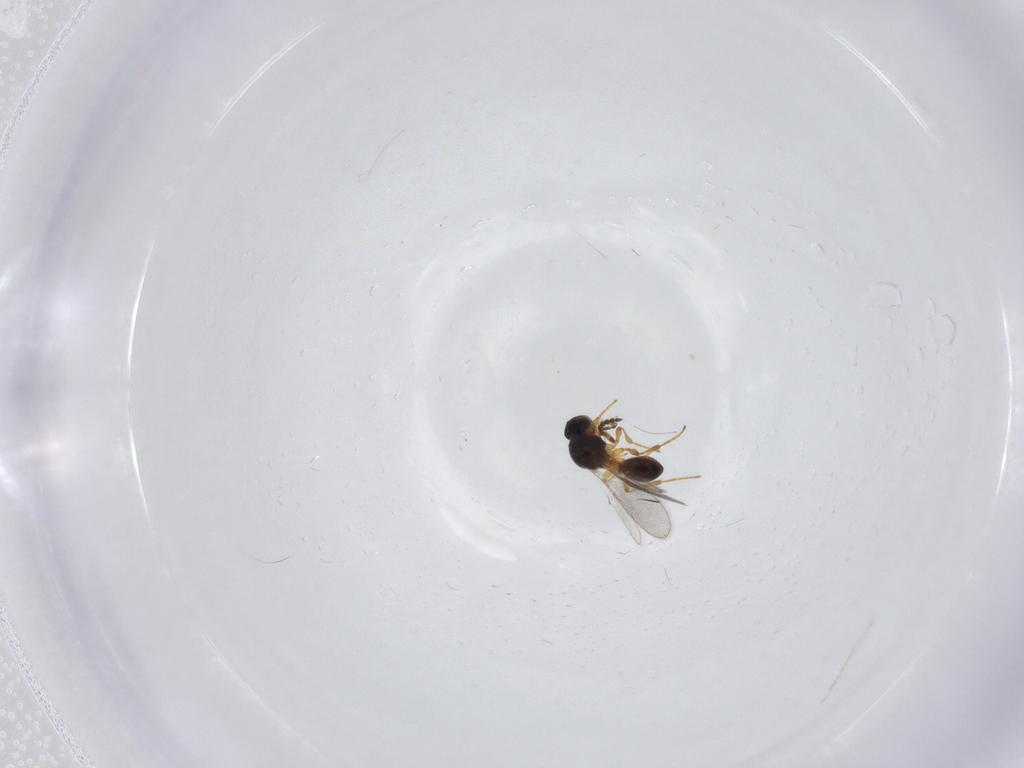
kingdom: Animalia
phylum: Arthropoda
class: Insecta
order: Hymenoptera
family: Platygastridae
